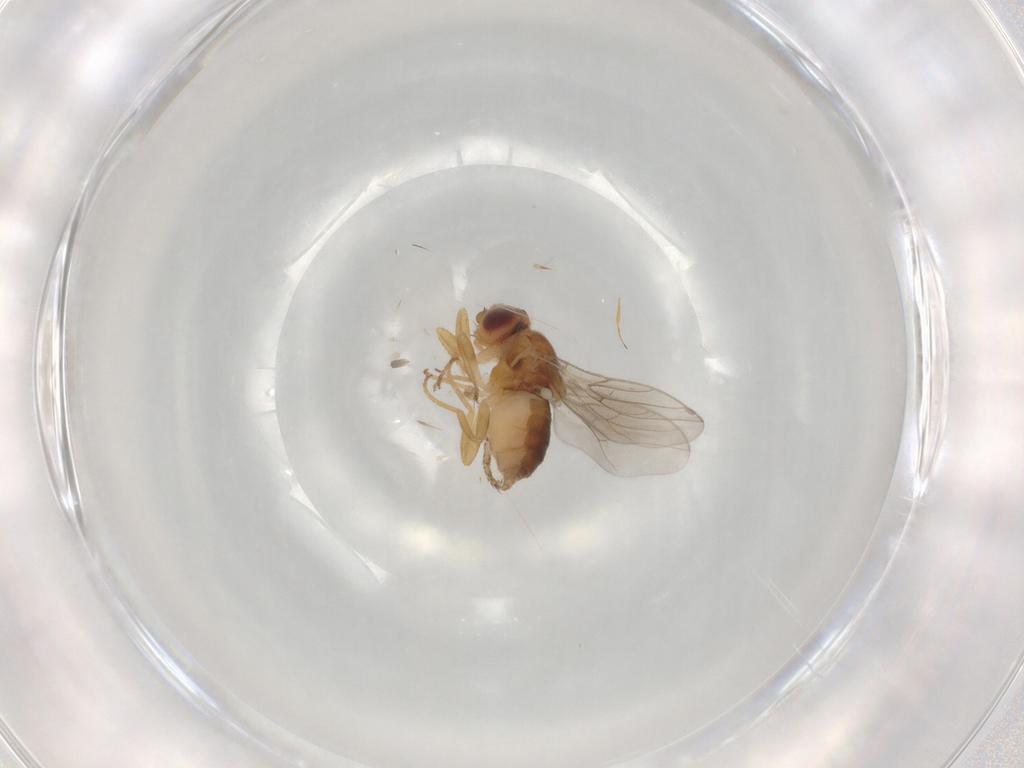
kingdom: Animalia
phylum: Arthropoda
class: Insecta
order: Diptera
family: Chloropidae
